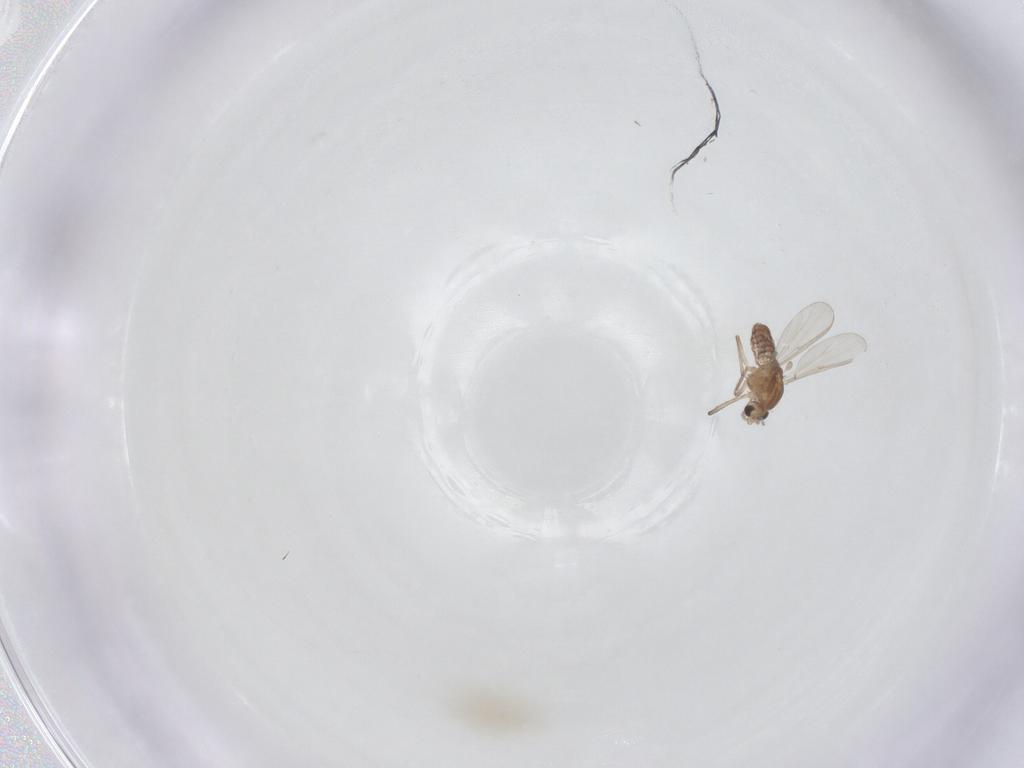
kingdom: Animalia
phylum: Arthropoda
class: Insecta
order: Diptera
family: Chironomidae
